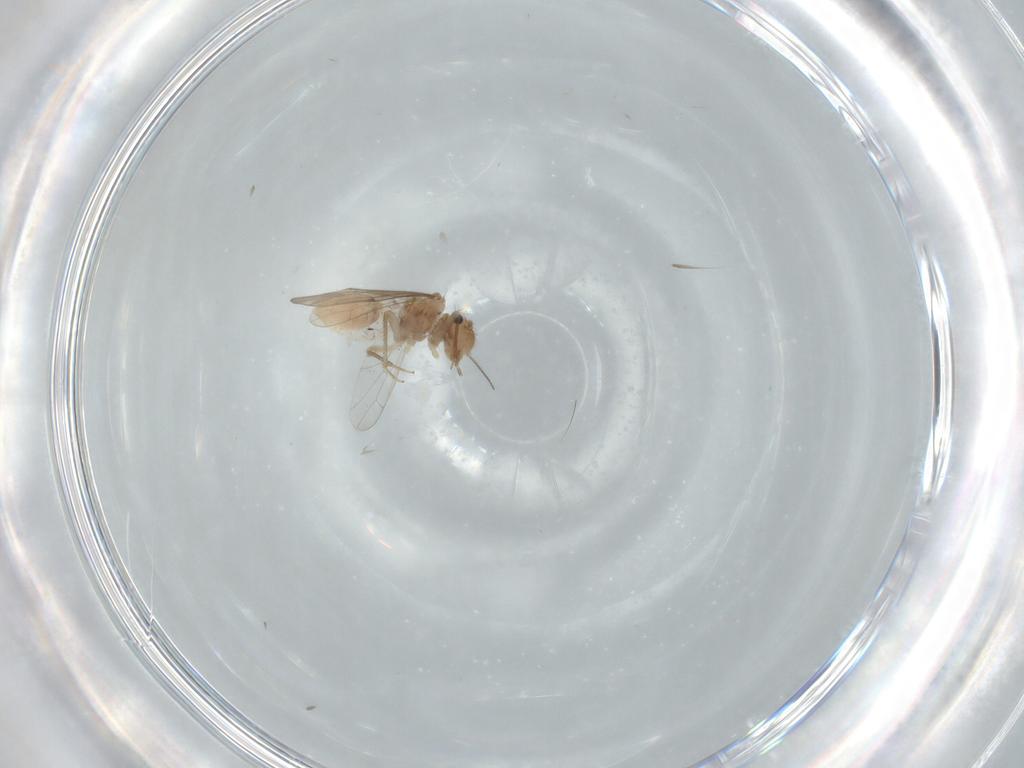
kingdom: Animalia
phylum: Arthropoda
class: Insecta
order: Psocodea
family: Ectopsocidae
